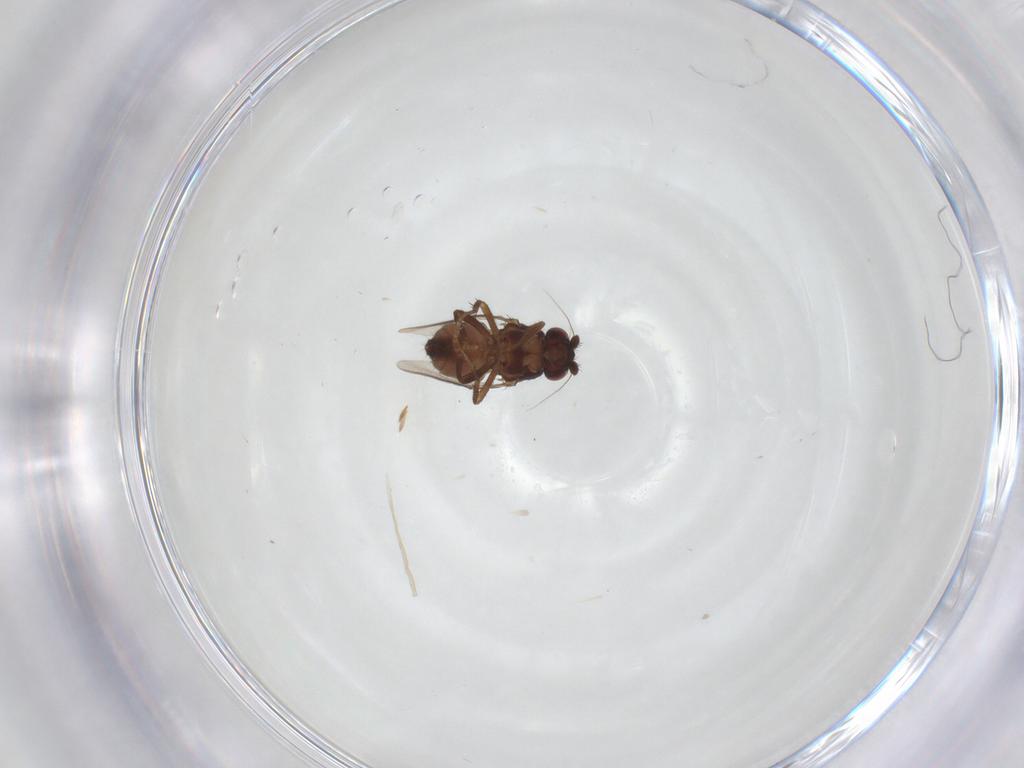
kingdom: Animalia
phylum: Arthropoda
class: Insecta
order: Diptera
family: Sphaeroceridae
